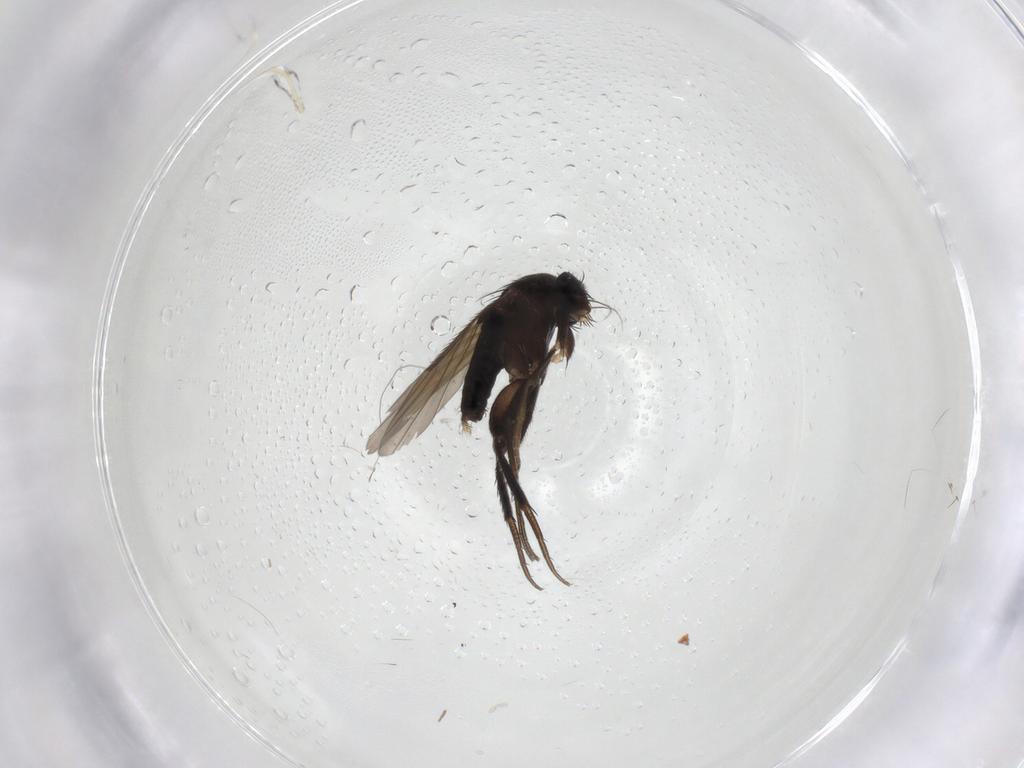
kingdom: Animalia
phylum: Arthropoda
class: Insecta
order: Diptera
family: Phoridae
